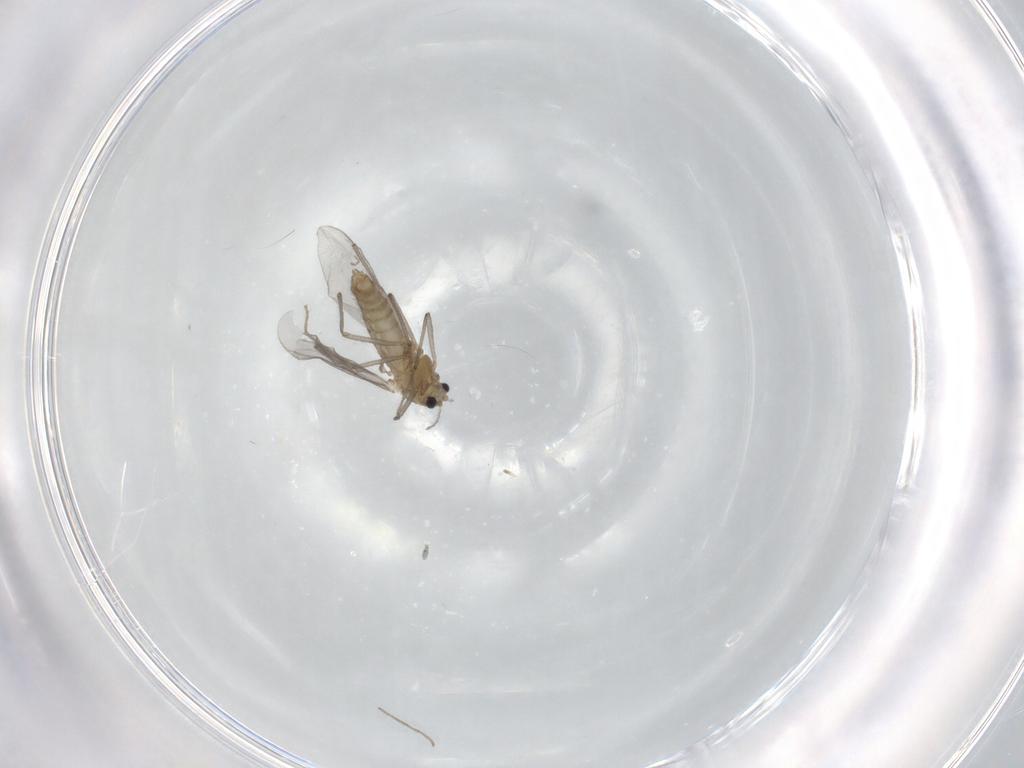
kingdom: Animalia
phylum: Arthropoda
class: Insecta
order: Diptera
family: Chironomidae
